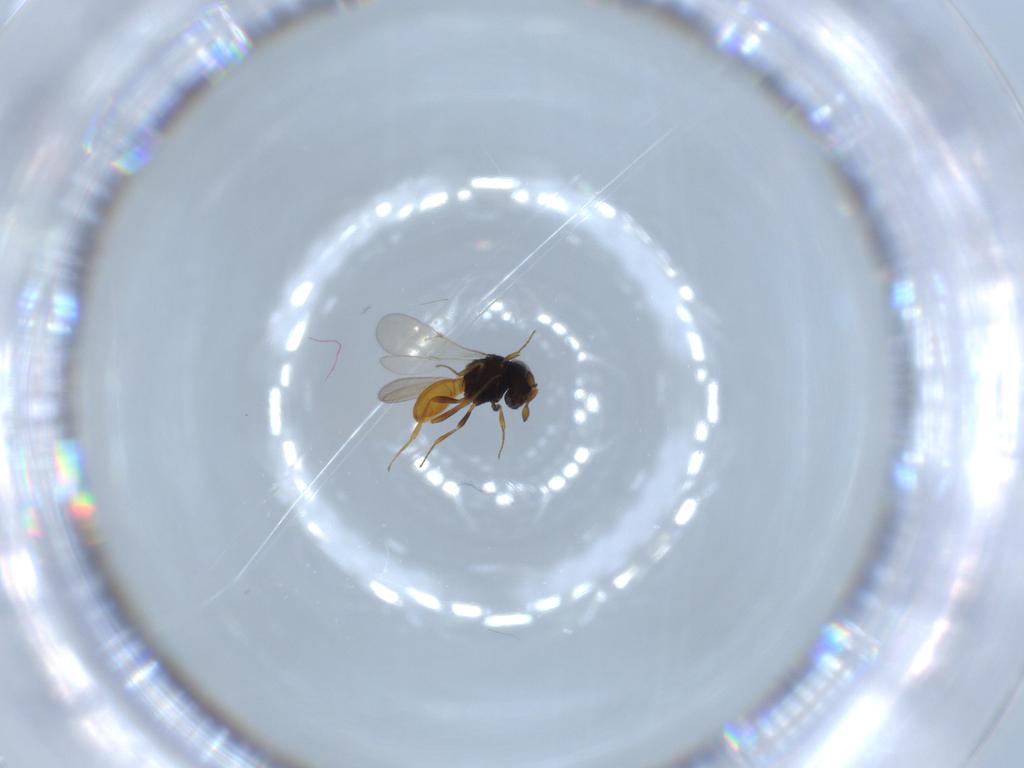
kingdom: Animalia
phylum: Arthropoda
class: Insecta
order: Hymenoptera
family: Scelionidae
